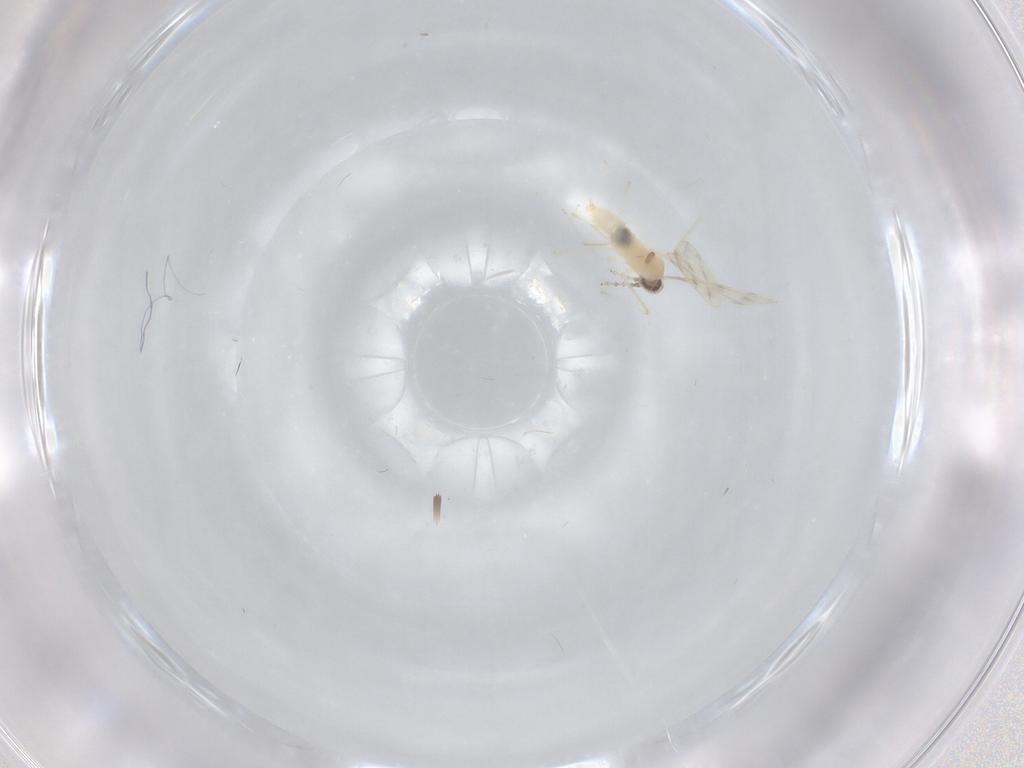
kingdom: Animalia
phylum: Arthropoda
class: Insecta
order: Diptera
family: Cecidomyiidae
